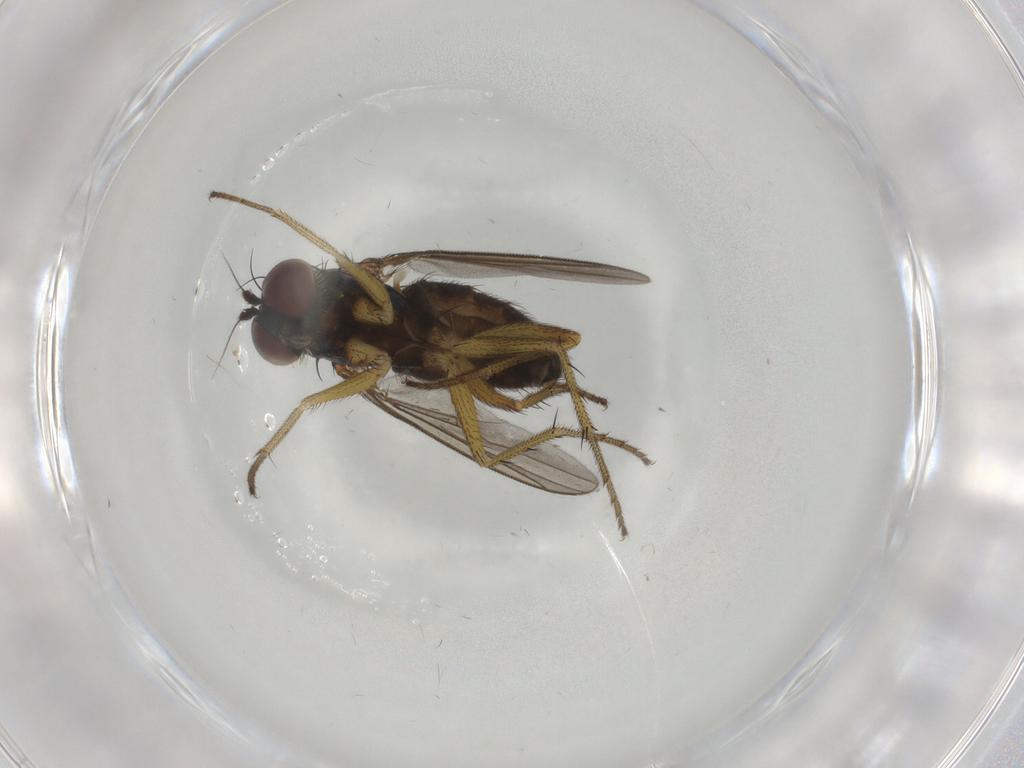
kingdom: Animalia
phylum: Arthropoda
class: Insecta
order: Diptera
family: Dolichopodidae
